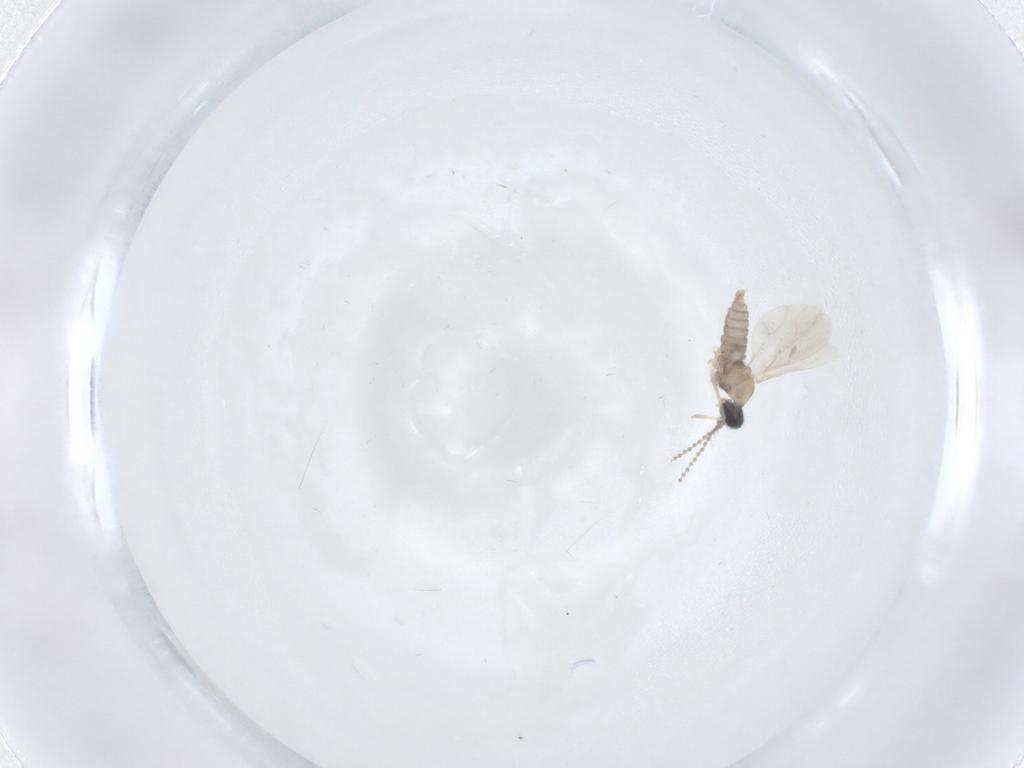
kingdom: Animalia
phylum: Arthropoda
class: Insecta
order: Diptera
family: Cecidomyiidae
